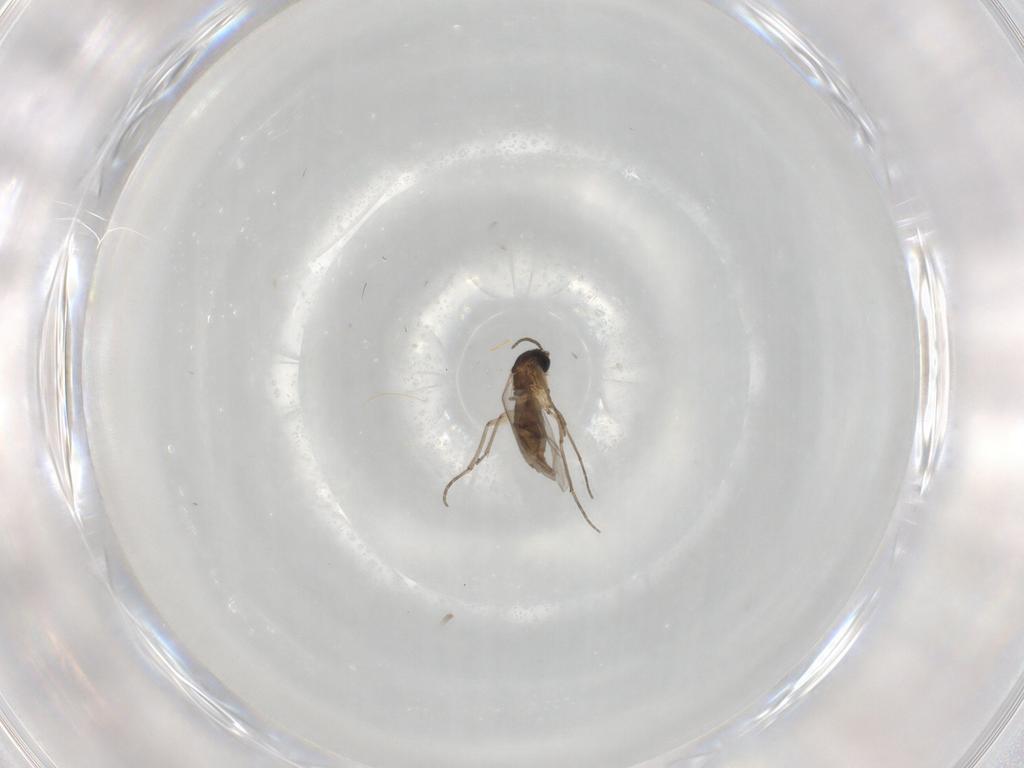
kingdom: Animalia
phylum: Arthropoda
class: Insecta
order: Diptera
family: Sciaridae
